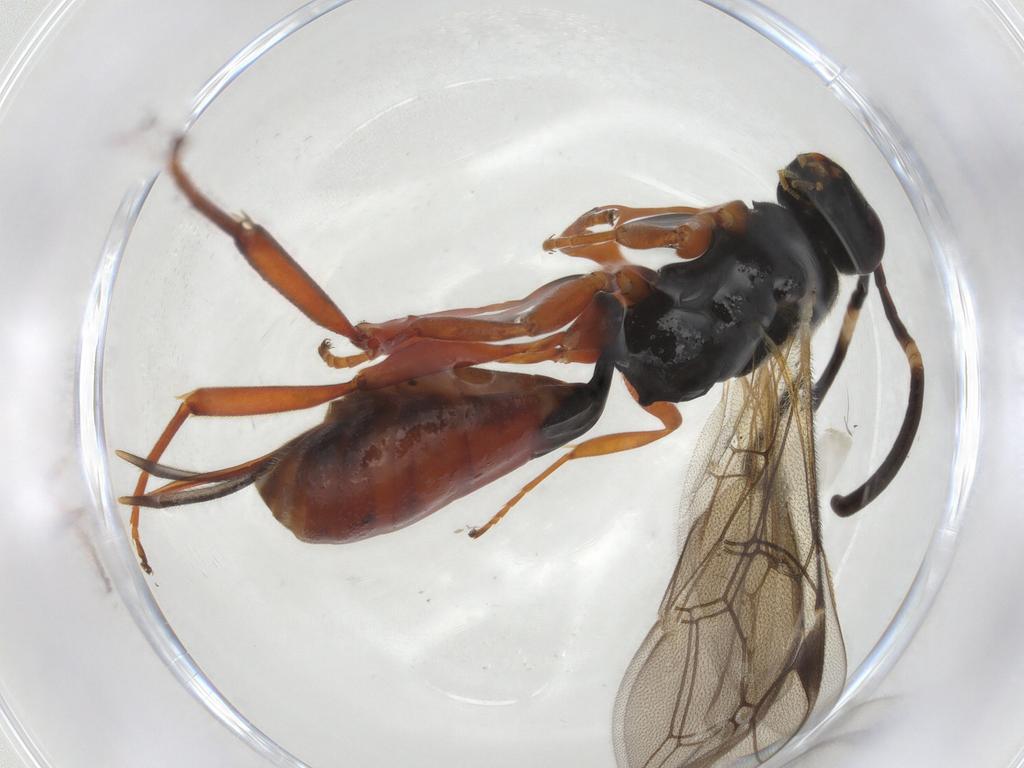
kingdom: Animalia
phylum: Arthropoda
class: Insecta
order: Hymenoptera
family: Ichneumonidae
